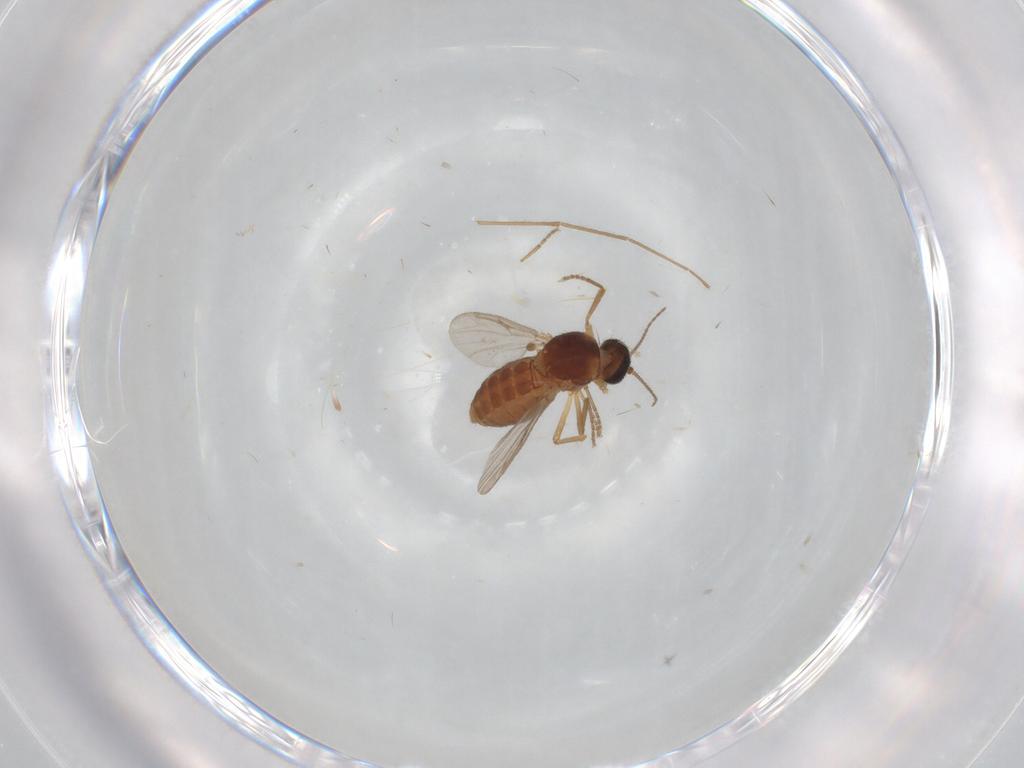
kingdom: Animalia
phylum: Arthropoda
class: Insecta
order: Diptera
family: Chironomidae
